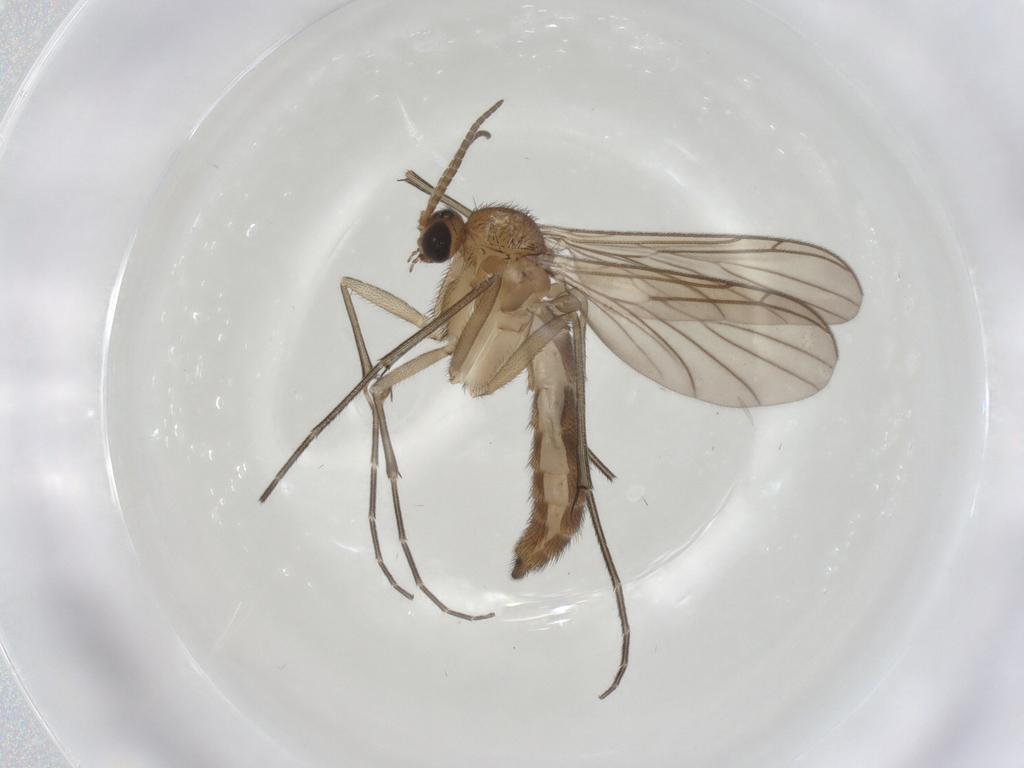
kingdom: Animalia
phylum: Arthropoda
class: Insecta
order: Diptera
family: Keroplatidae
